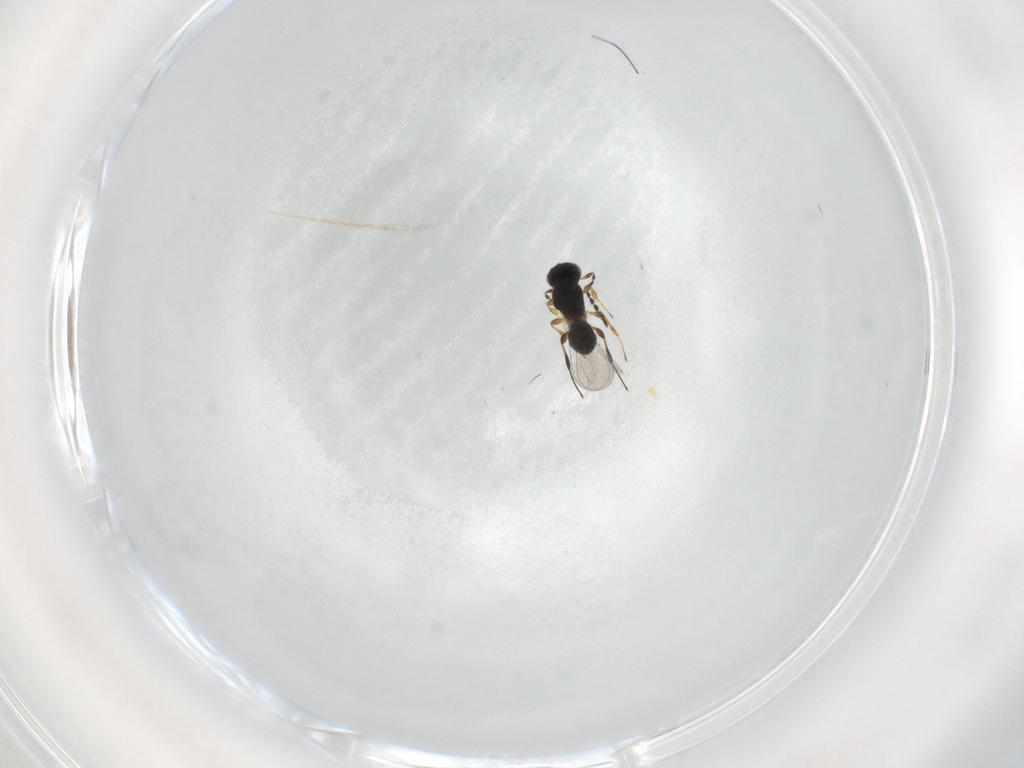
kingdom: Animalia
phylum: Arthropoda
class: Insecta
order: Hymenoptera
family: Platygastridae
